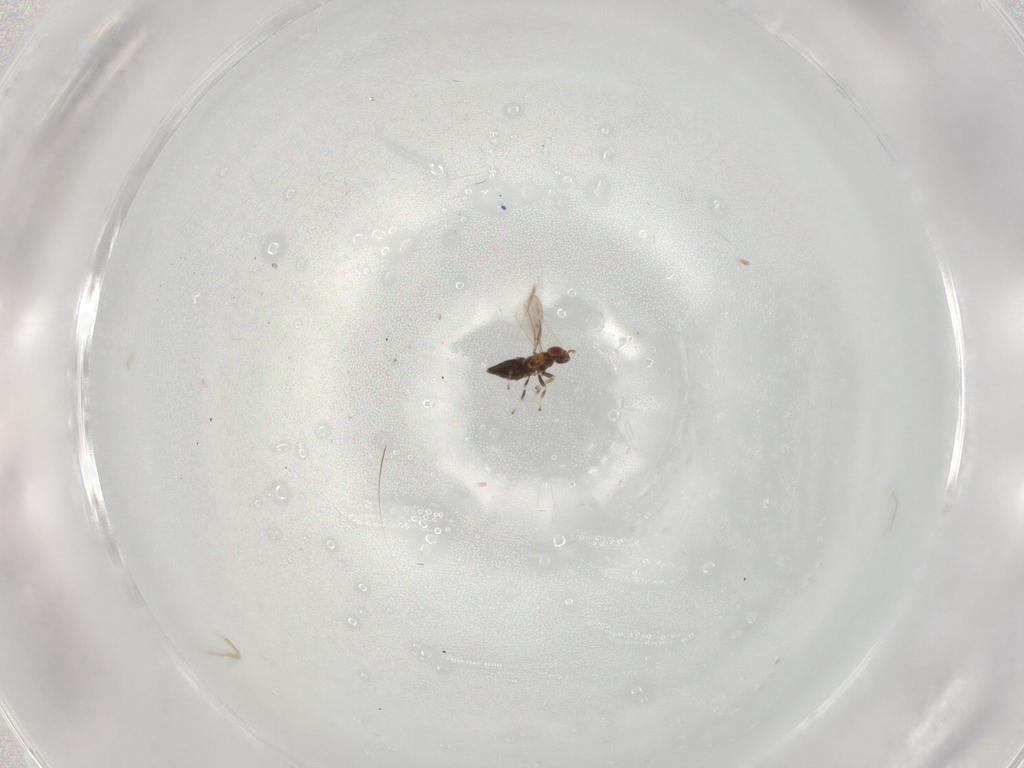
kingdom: Animalia
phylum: Arthropoda
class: Insecta
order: Hymenoptera
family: Trichogrammatidae
